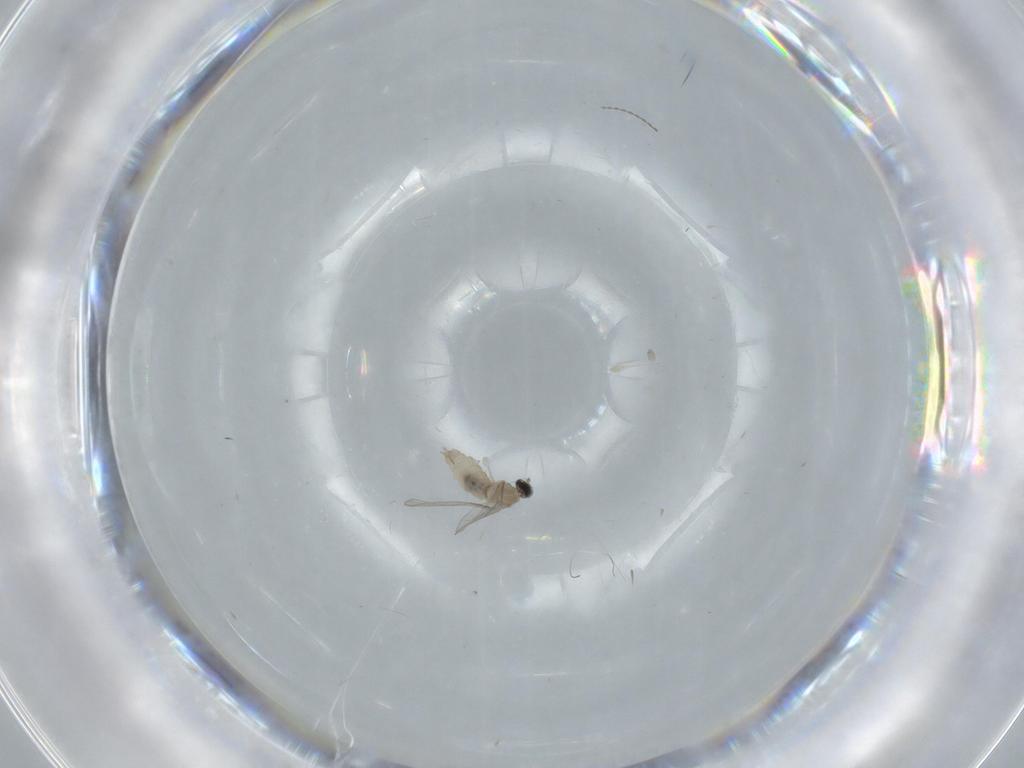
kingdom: Animalia
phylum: Arthropoda
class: Insecta
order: Diptera
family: Cecidomyiidae
